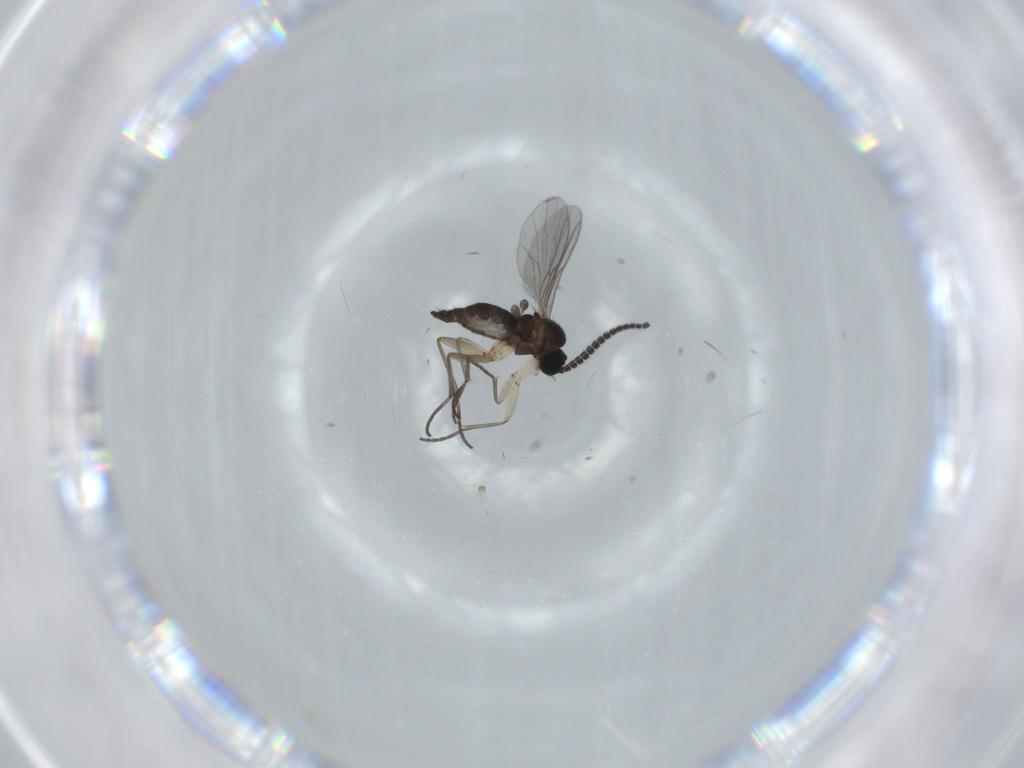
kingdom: Animalia
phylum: Arthropoda
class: Insecta
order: Diptera
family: Sciaridae
